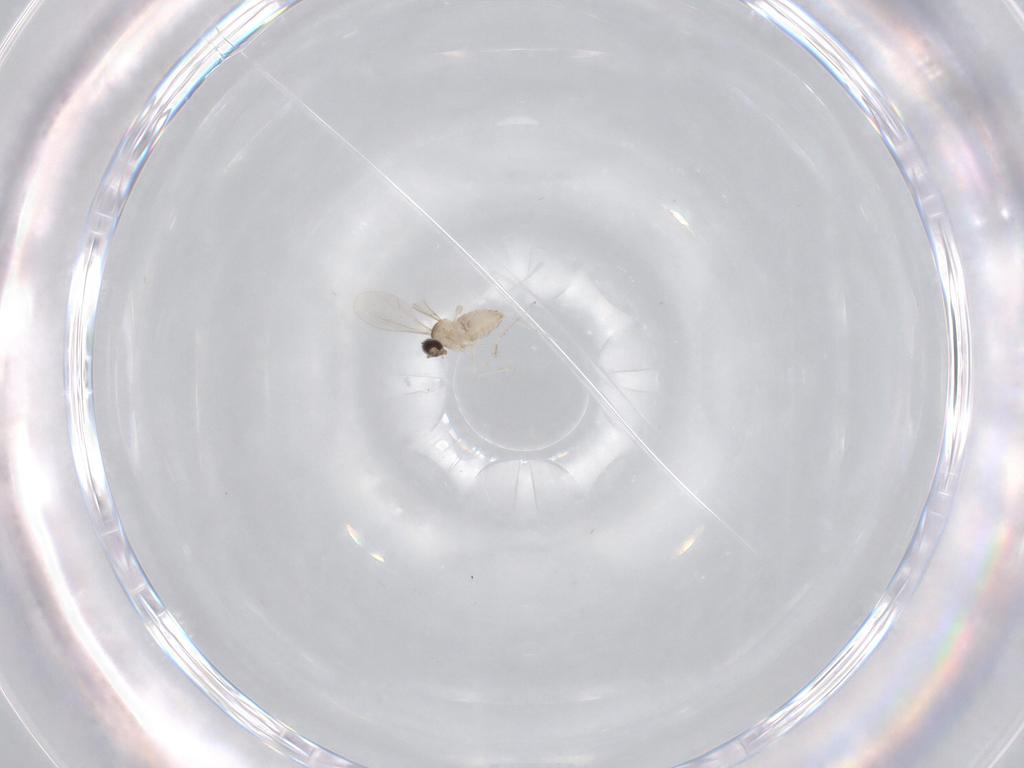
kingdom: Animalia
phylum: Arthropoda
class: Insecta
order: Diptera
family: Cecidomyiidae
